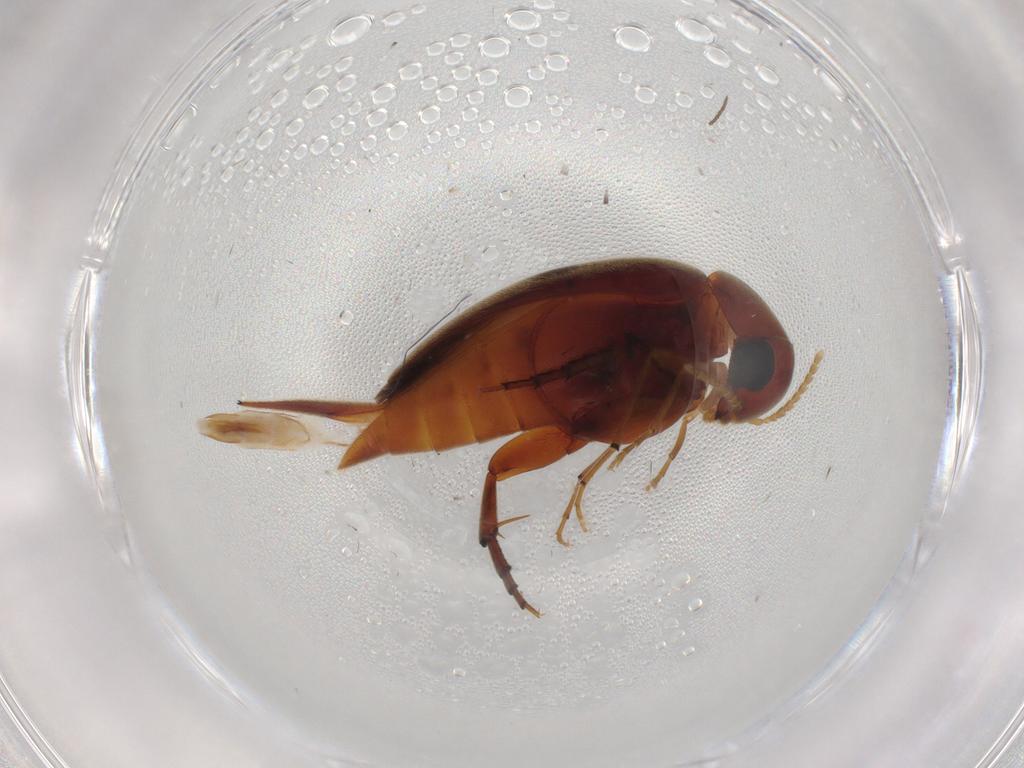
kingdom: Animalia
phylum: Arthropoda
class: Insecta
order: Coleoptera
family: Mordellidae
